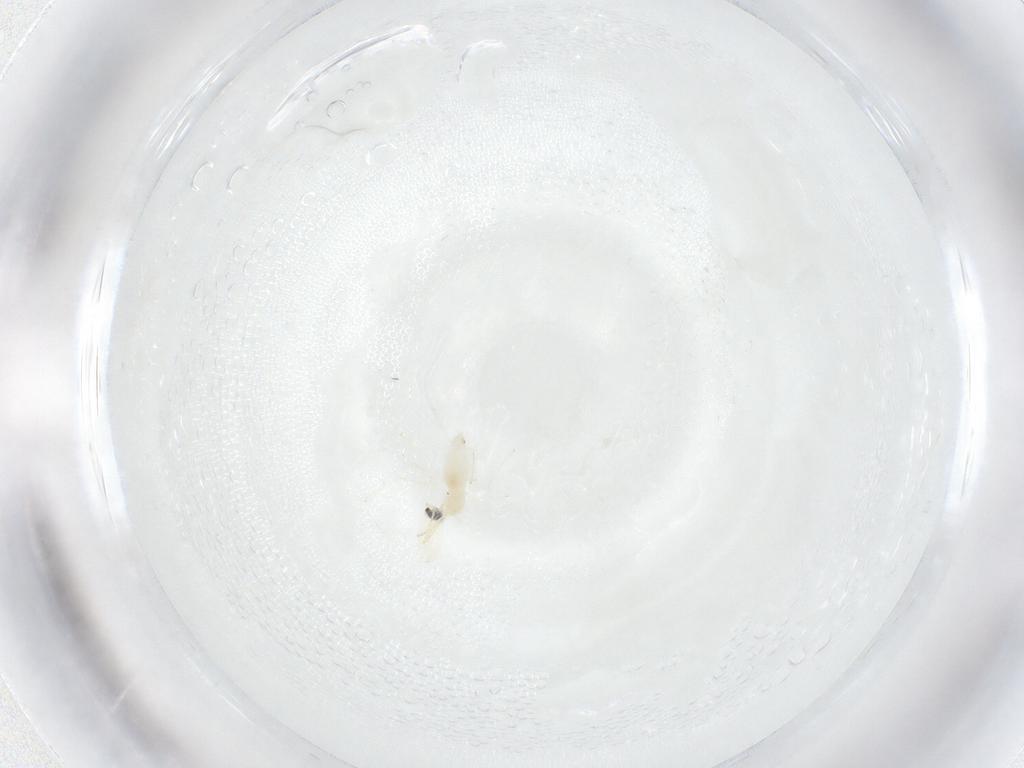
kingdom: Animalia
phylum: Arthropoda
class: Insecta
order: Diptera
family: Cecidomyiidae
